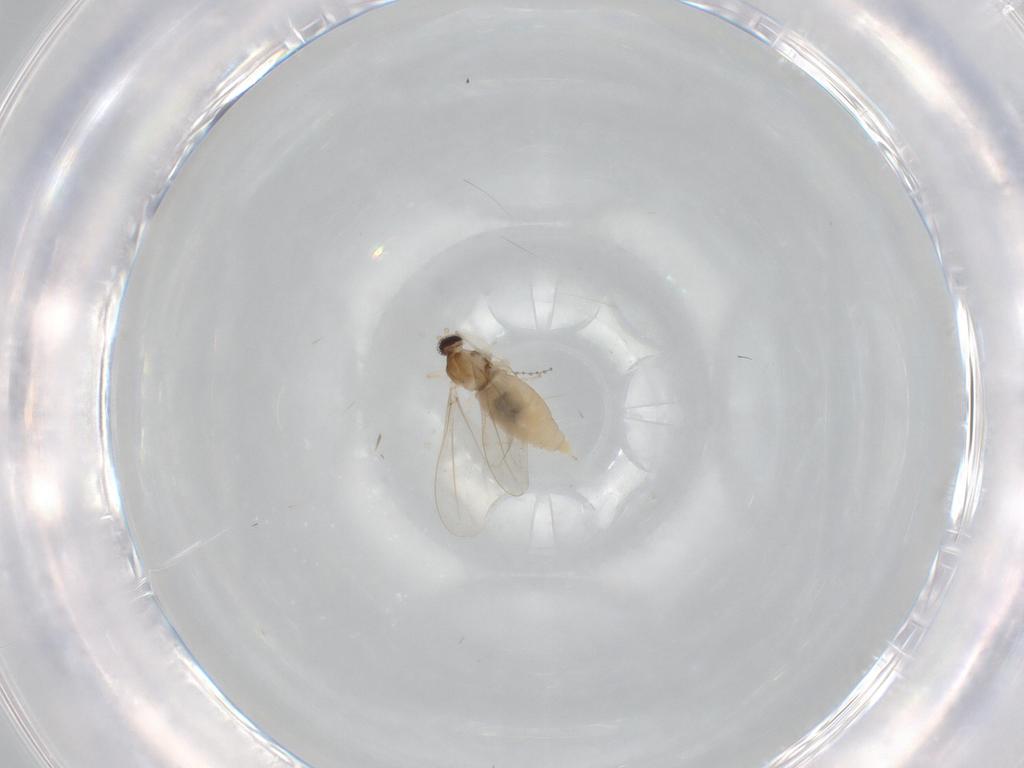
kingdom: Animalia
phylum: Arthropoda
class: Insecta
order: Diptera
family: Cecidomyiidae
